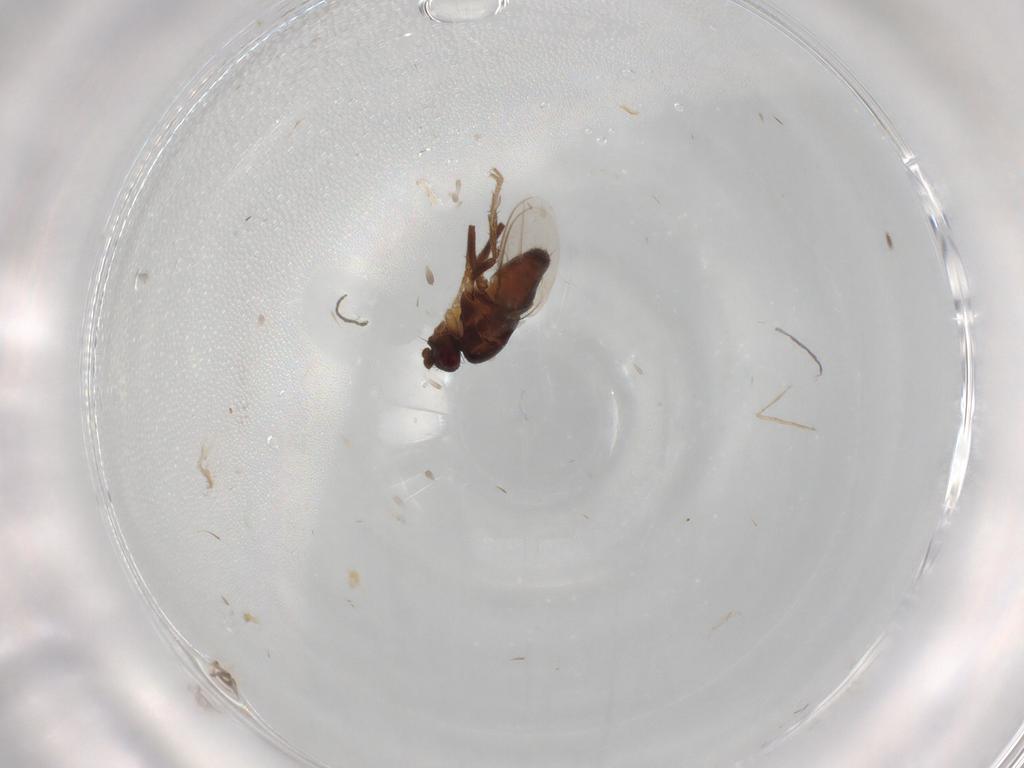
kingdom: Animalia
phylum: Arthropoda
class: Insecta
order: Diptera
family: Sphaeroceridae
